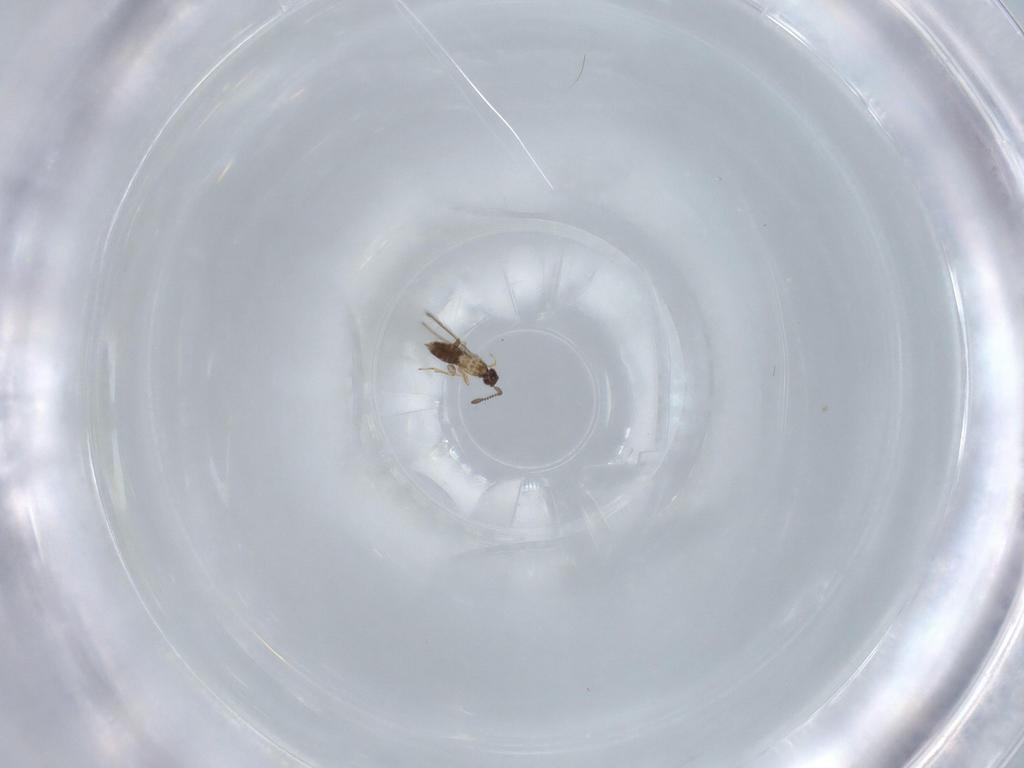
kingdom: Animalia
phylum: Arthropoda
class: Insecta
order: Hymenoptera
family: Mymaridae
